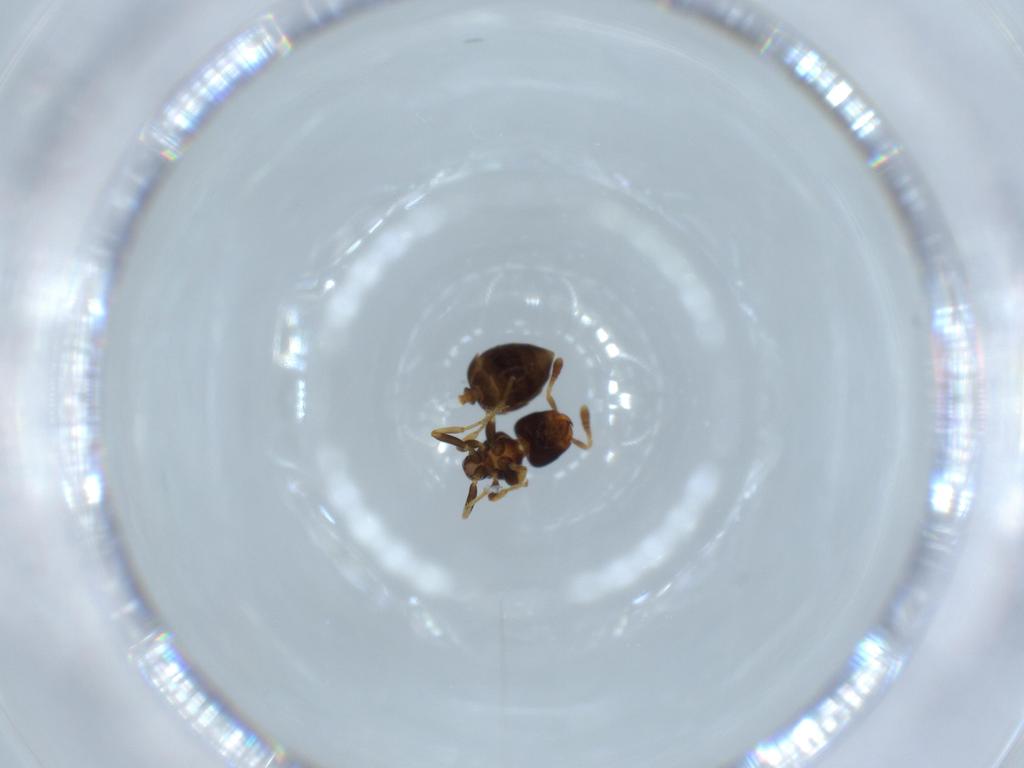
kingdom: Animalia
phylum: Arthropoda
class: Insecta
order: Hymenoptera
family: Formicidae
